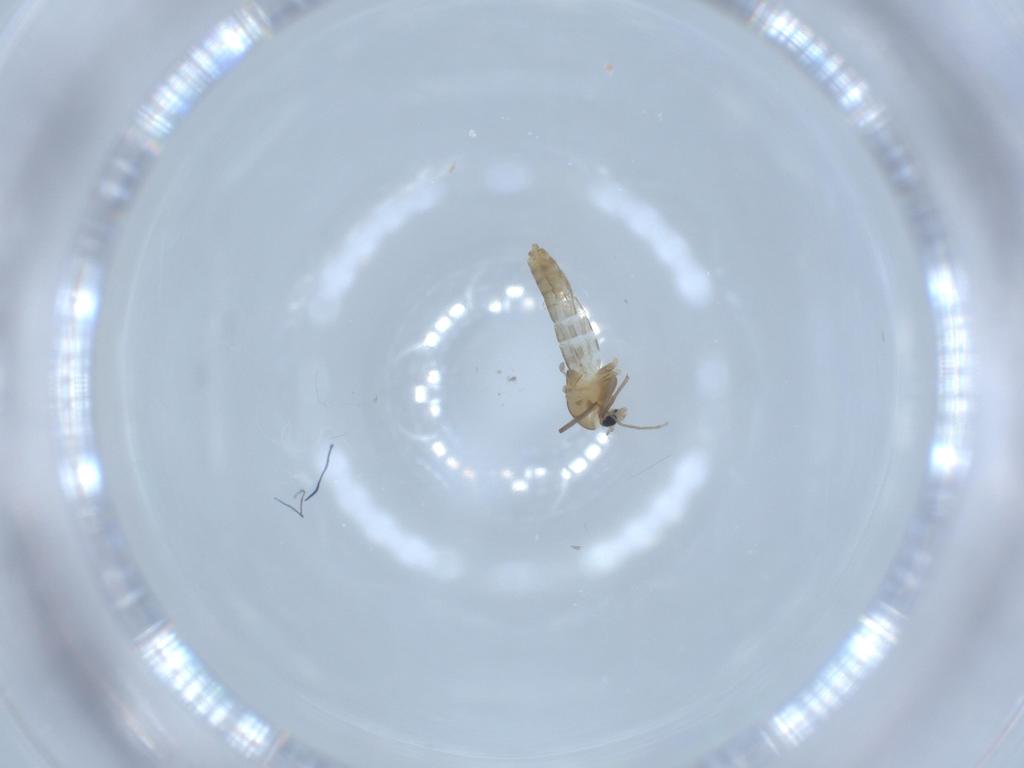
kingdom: Animalia
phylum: Arthropoda
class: Insecta
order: Diptera
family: Chironomidae
